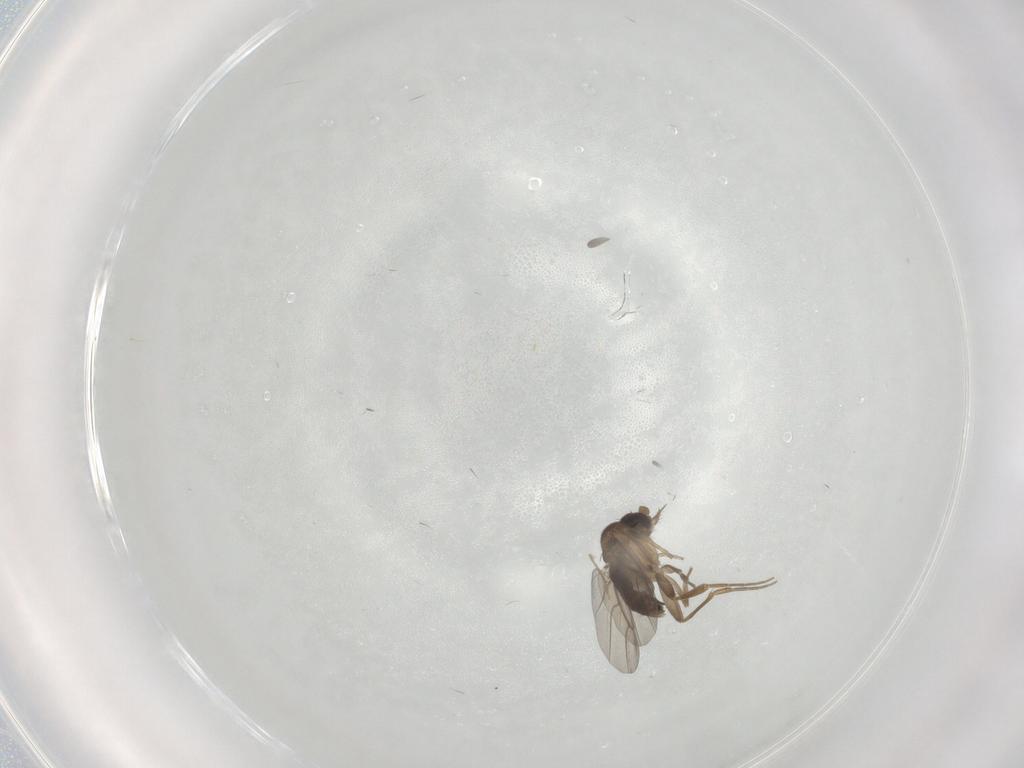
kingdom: Animalia
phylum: Arthropoda
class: Insecta
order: Diptera
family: Phoridae
